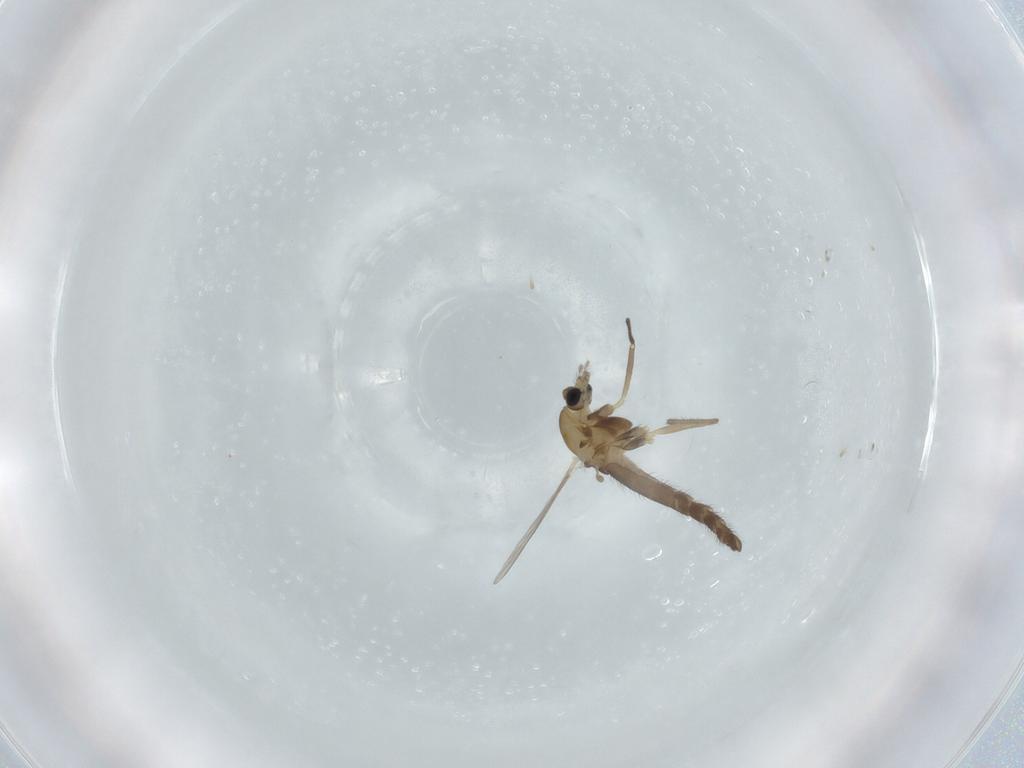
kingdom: Animalia
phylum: Arthropoda
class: Insecta
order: Diptera
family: Chironomidae
